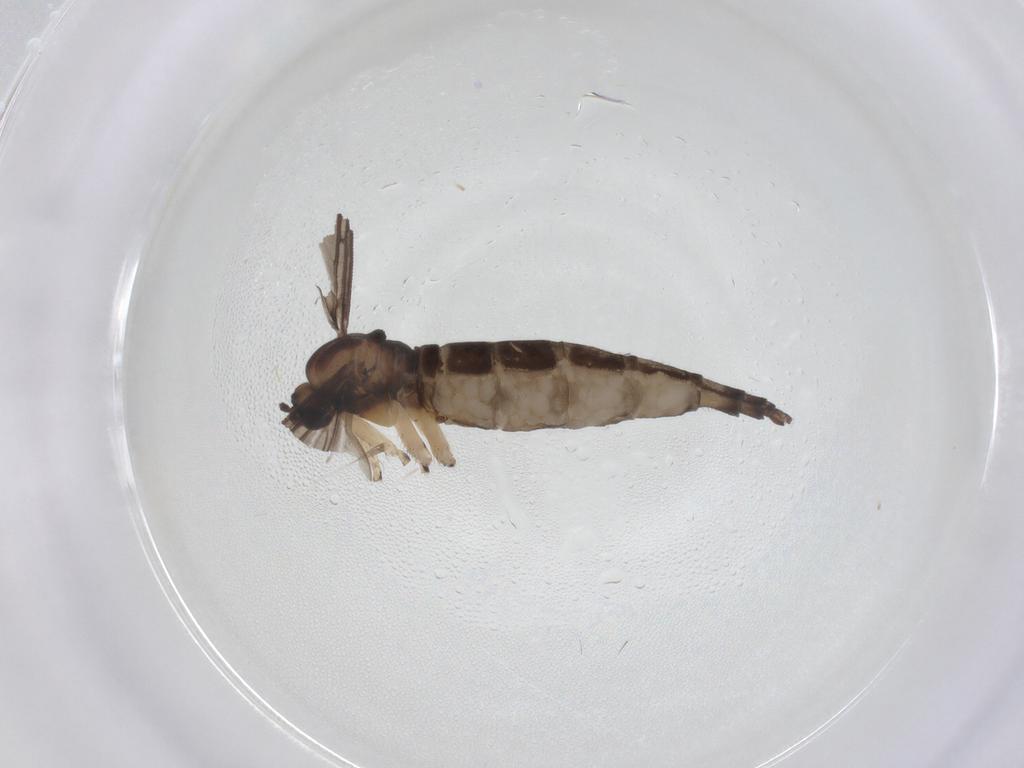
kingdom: Animalia
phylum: Arthropoda
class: Insecta
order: Diptera
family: Sciaridae
